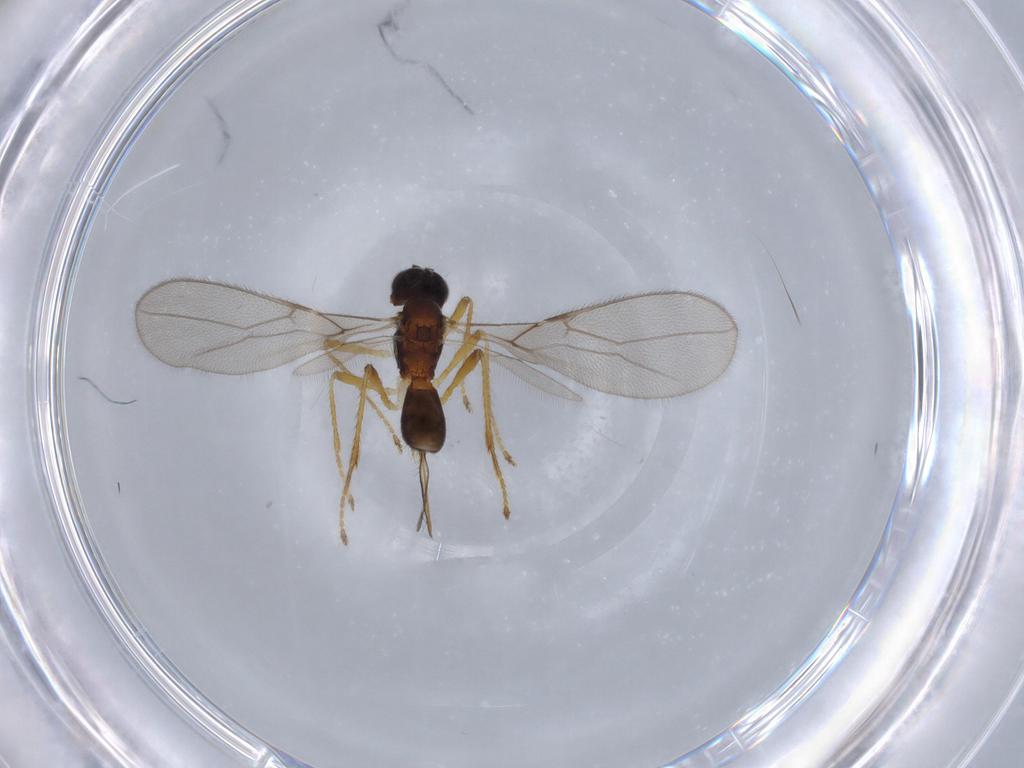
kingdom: Animalia
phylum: Arthropoda
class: Insecta
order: Hymenoptera
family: Braconidae
